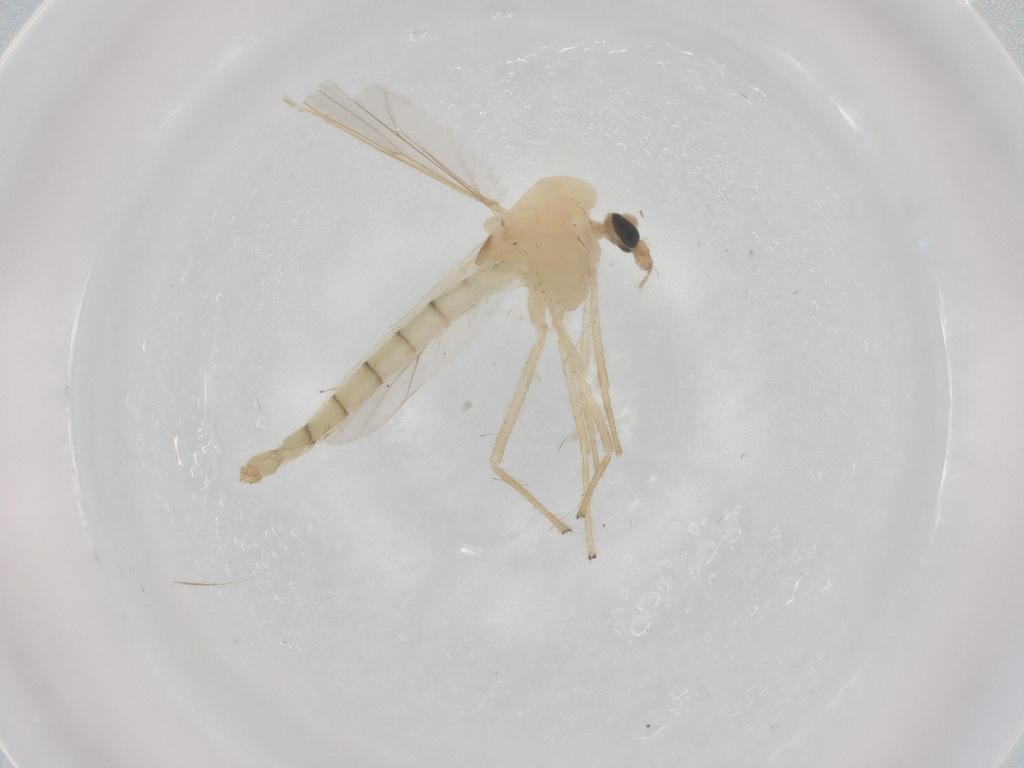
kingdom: Animalia
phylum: Arthropoda
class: Insecta
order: Diptera
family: Chironomidae
